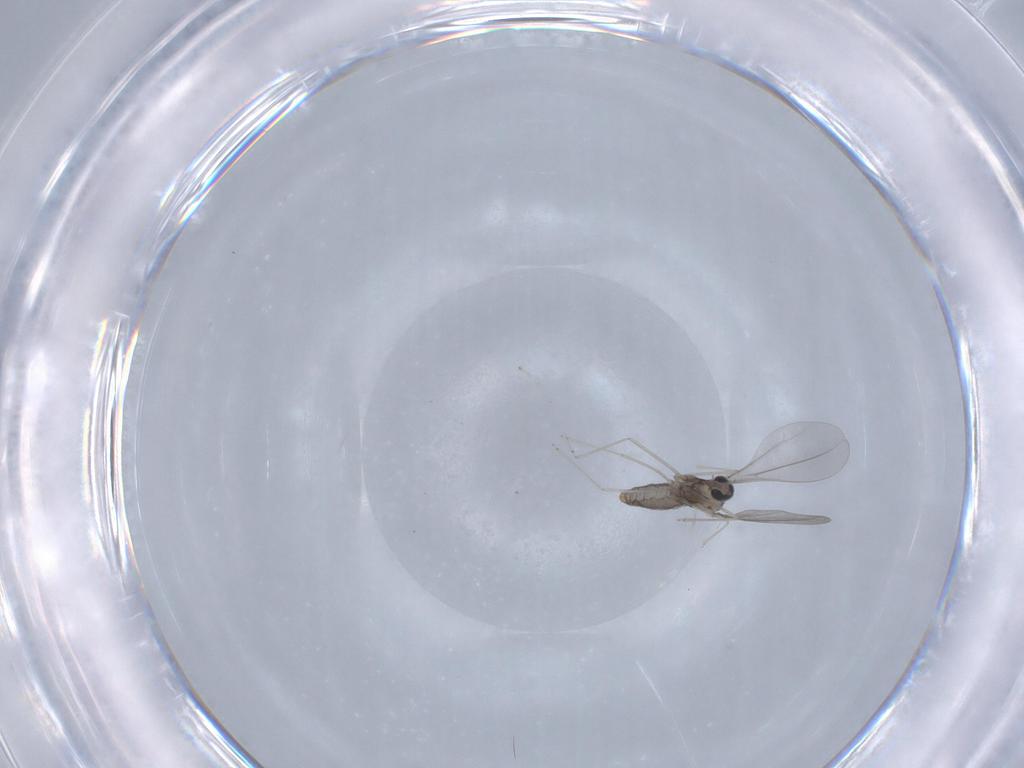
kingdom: Animalia
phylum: Arthropoda
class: Insecta
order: Diptera
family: Cecidomyiidae
